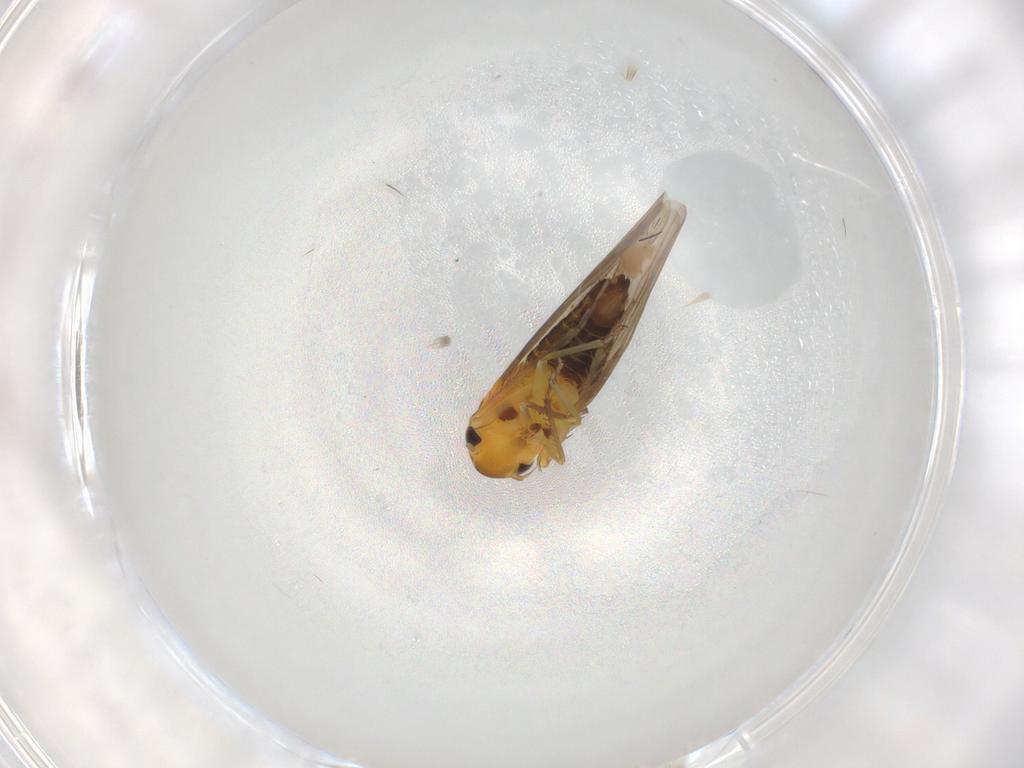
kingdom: Animalia
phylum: Arthropoda
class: Insecta
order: Hemiptera
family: Cicadellidae
